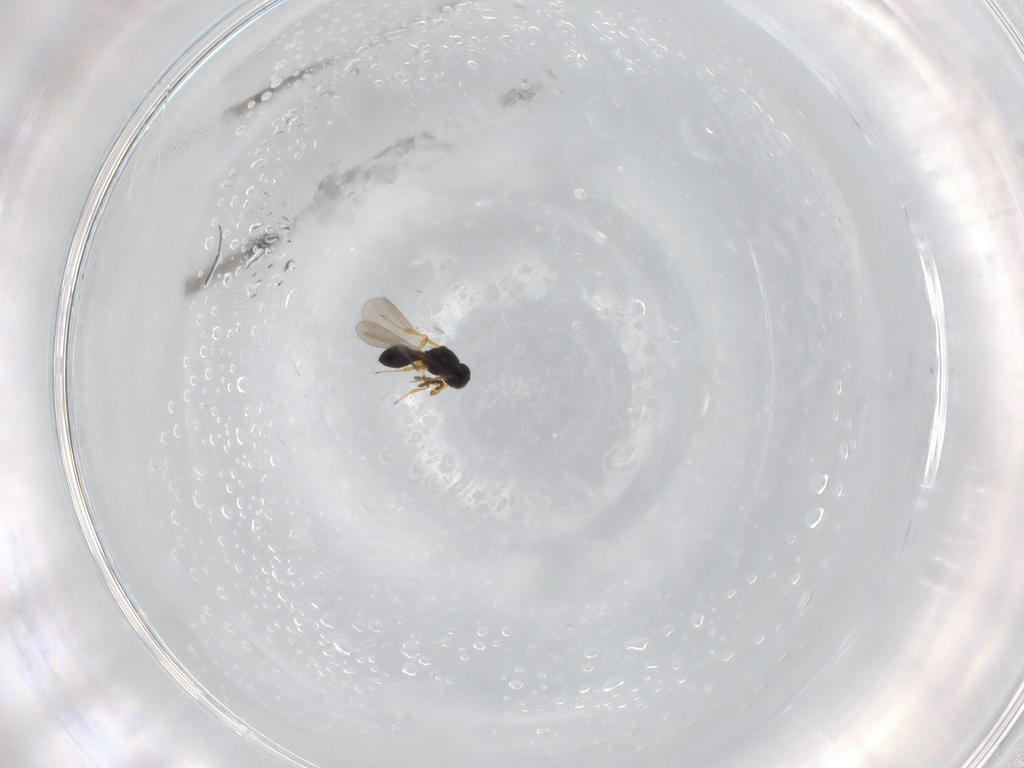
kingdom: Animalia
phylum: Arthropoda
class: Insecta
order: Hymenoptera
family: Platygastridae
